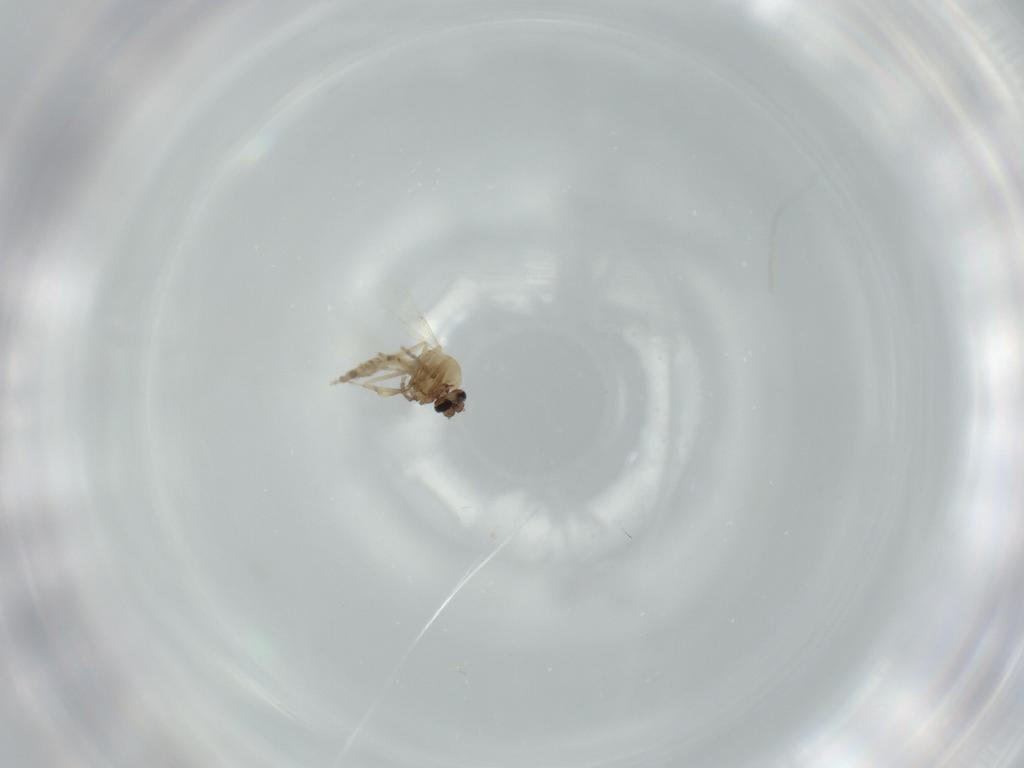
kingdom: Animalia
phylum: Arthropoda
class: Insecta
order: Diptera
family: Ceratopogonidae
